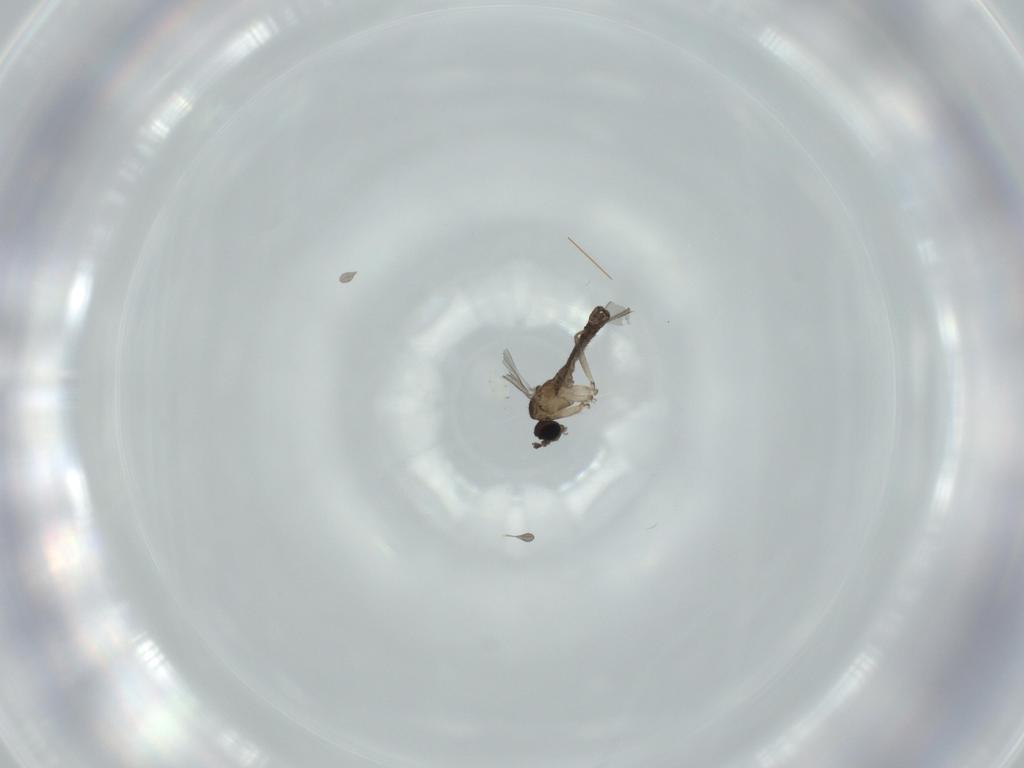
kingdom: Animalia
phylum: Arthropoda
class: Insecta
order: Diptera
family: Sciaridae
